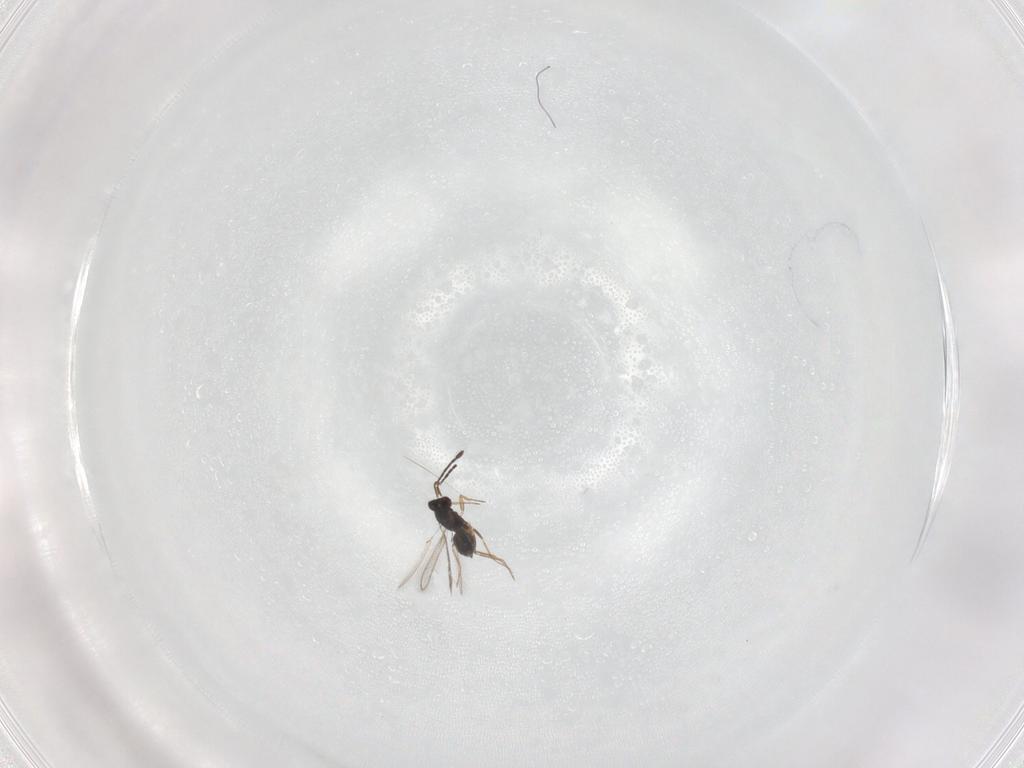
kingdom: Animalia
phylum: Arthropoda
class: Insecta
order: Hymenoptera
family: Mymaridae
